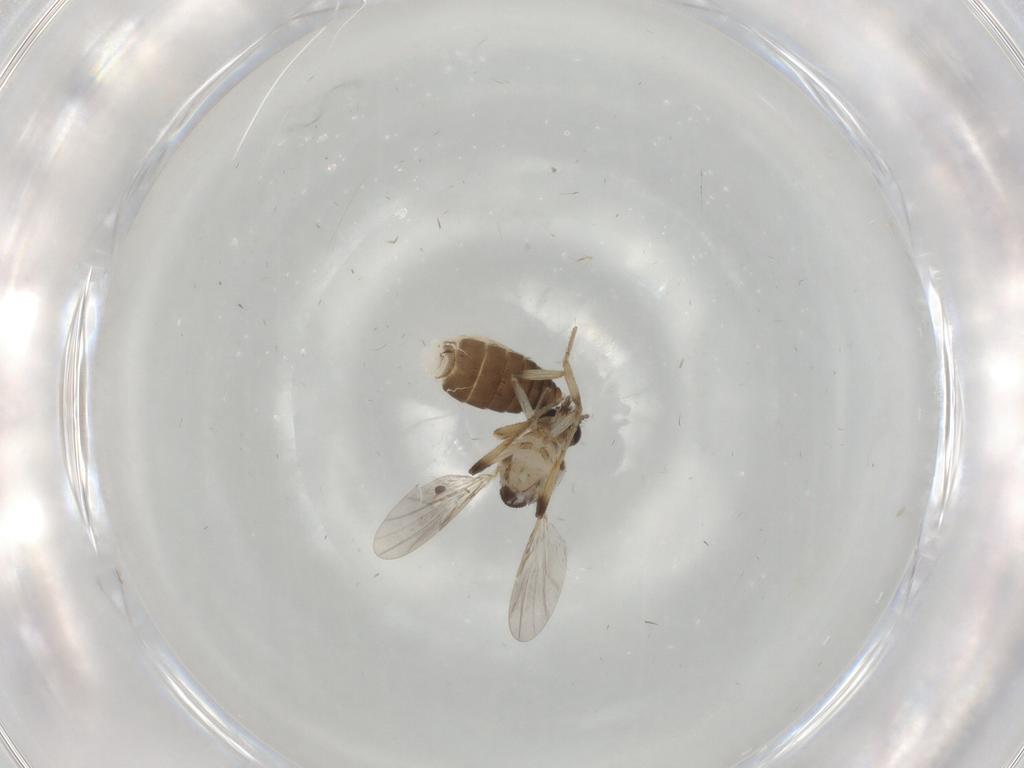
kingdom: Animalia
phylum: Arthropoda
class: Insecta
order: Diptera
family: Ceratopogonidae
